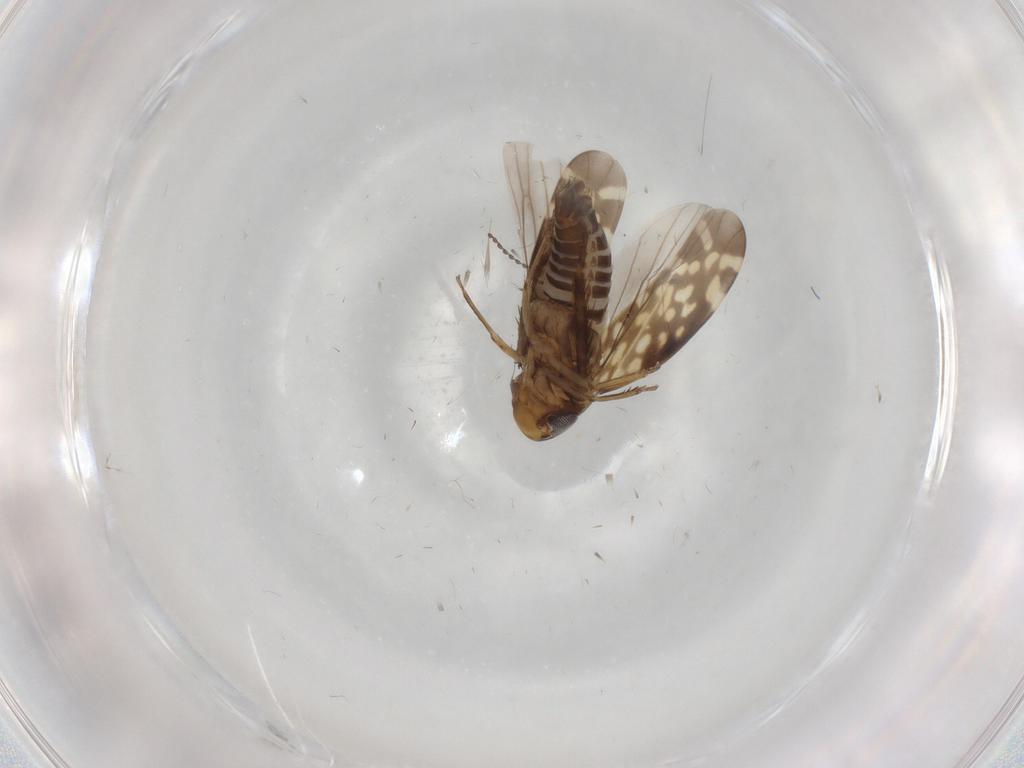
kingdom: Animalia
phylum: Arthropoda
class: Insecta
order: Hemiptera
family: Cicadellidae
